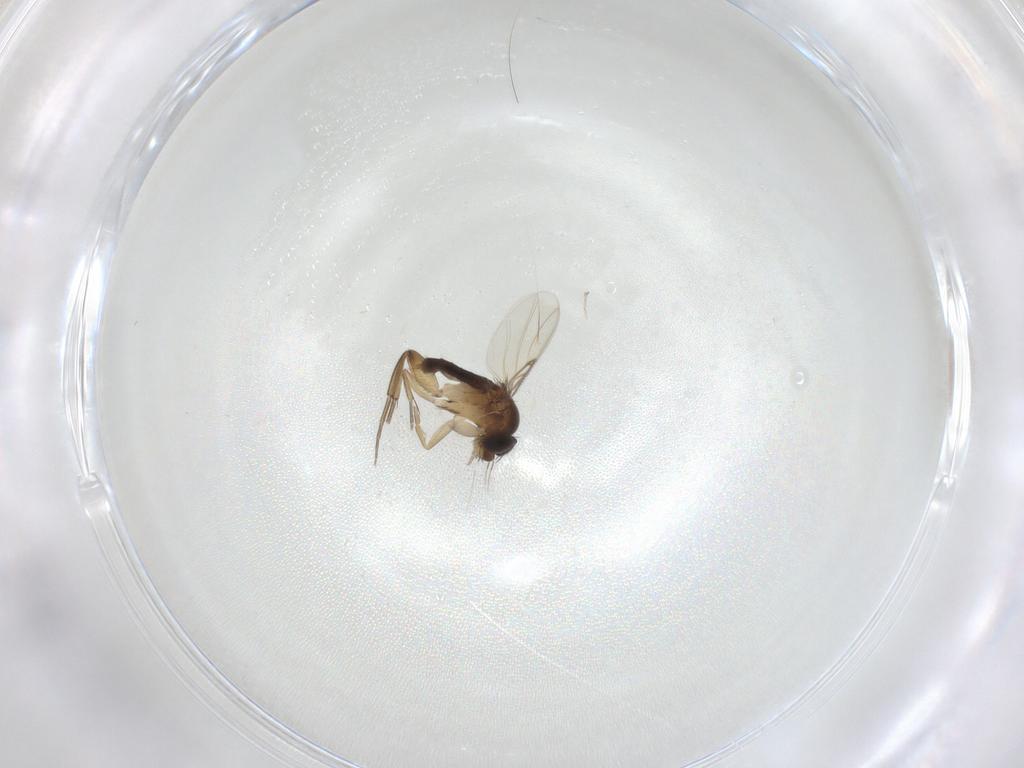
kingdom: Animalia
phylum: Arthropoda
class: Insecta
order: Diptera
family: Phoridae
